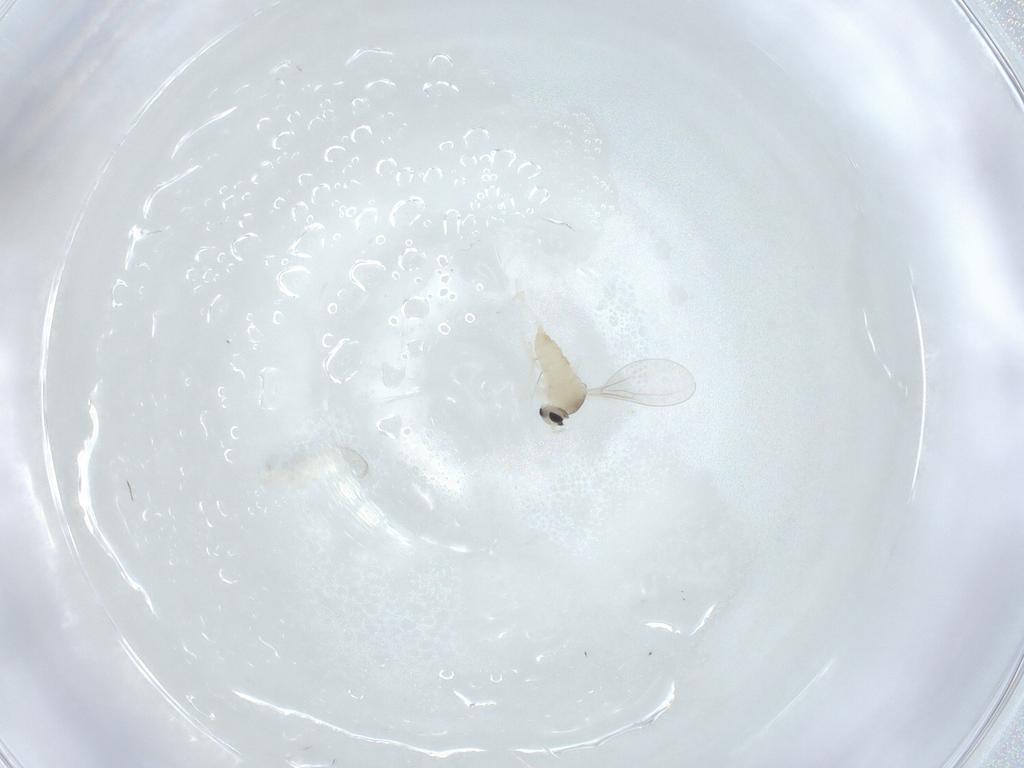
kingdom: Animalia
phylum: Arthropoda
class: Insecta
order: Diptera
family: Cecidomyiidae
